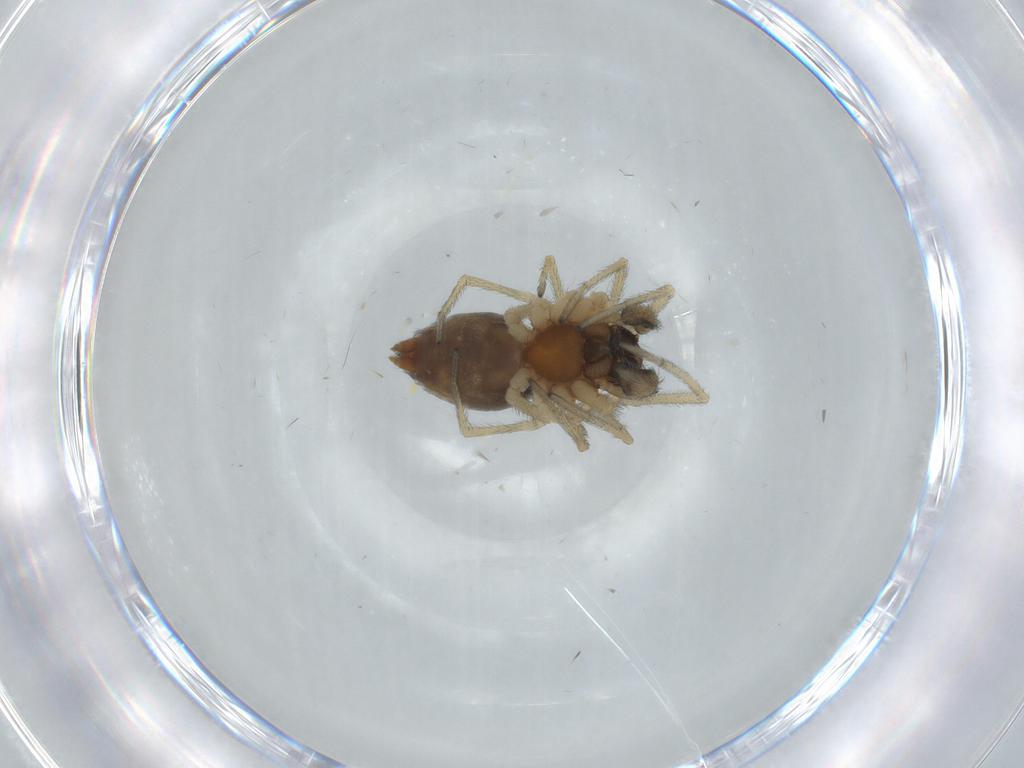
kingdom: Animalia
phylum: Arthropoda
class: Arachnida
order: Araneae
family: Dictynidae
